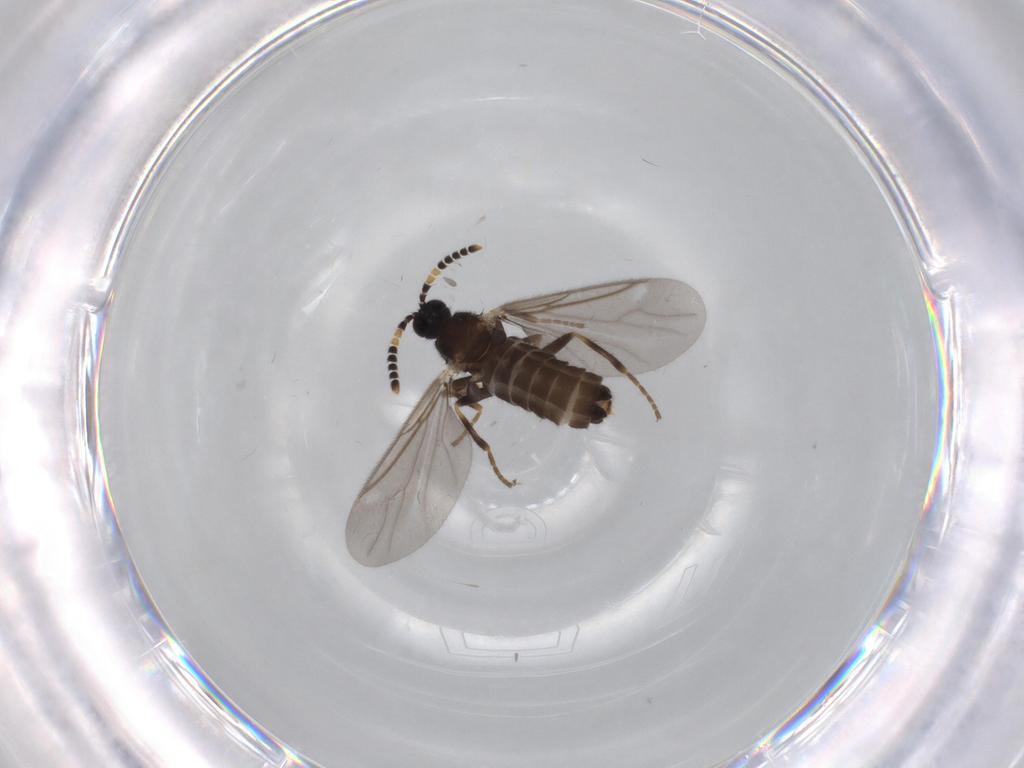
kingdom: Animalia
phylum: Arthropoda
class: Insecta
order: Diptera
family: Scatopsidae
